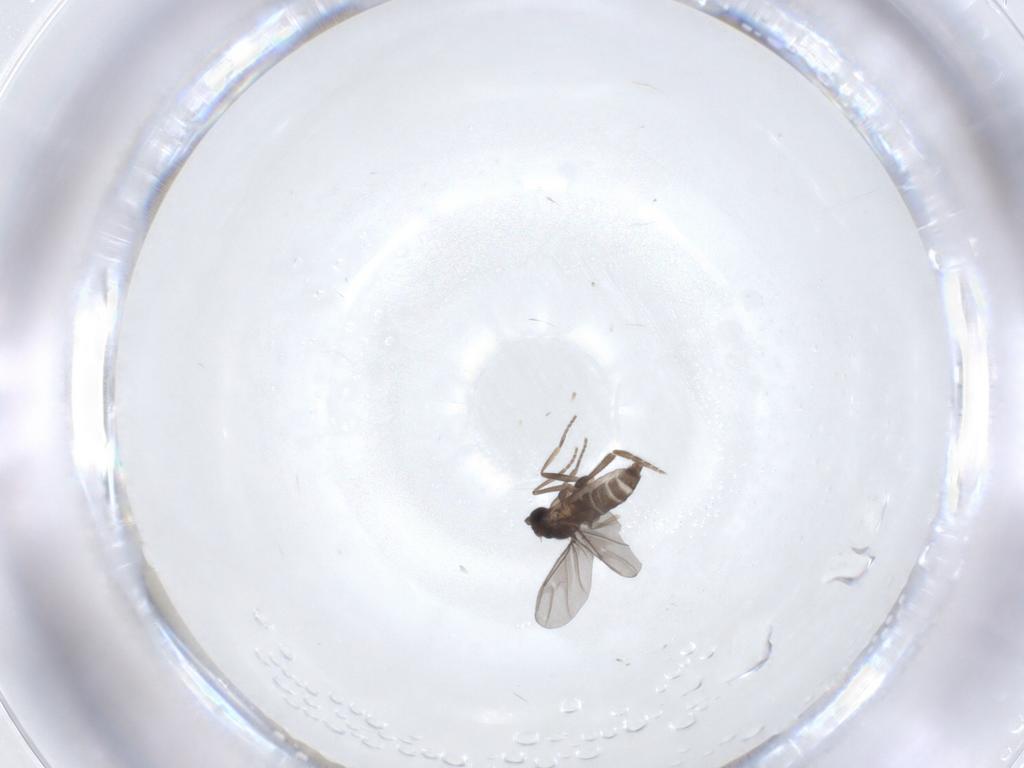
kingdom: Animalia
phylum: Arthropoda
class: Insecta
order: Diptera
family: Phoridae
